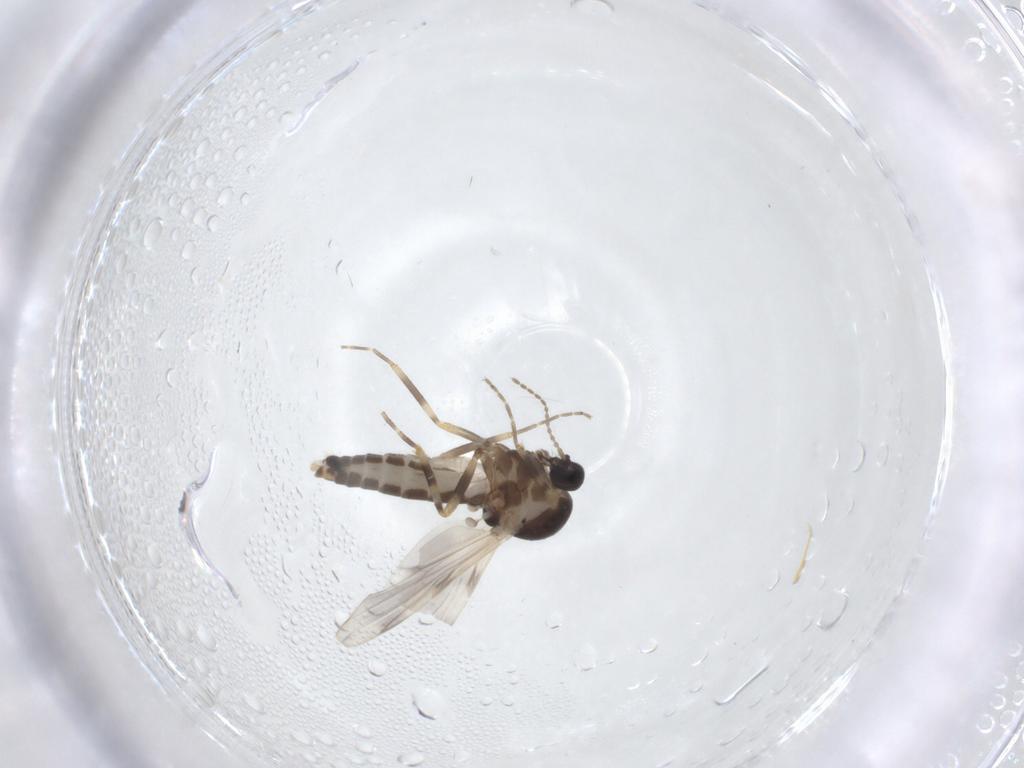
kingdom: Animalia
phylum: Arthropoda
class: Insecta
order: Diptera
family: Ceratopogonidae
